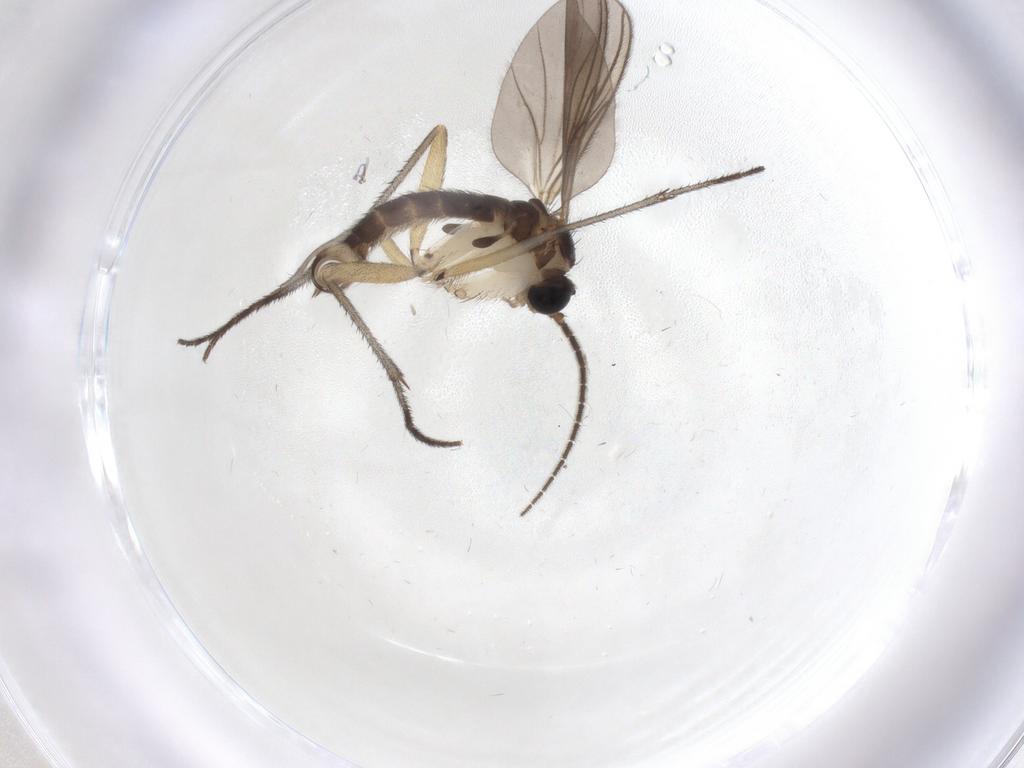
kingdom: Animalia
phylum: Arthropoda
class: Insecta
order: Diptera
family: Sciaridae
